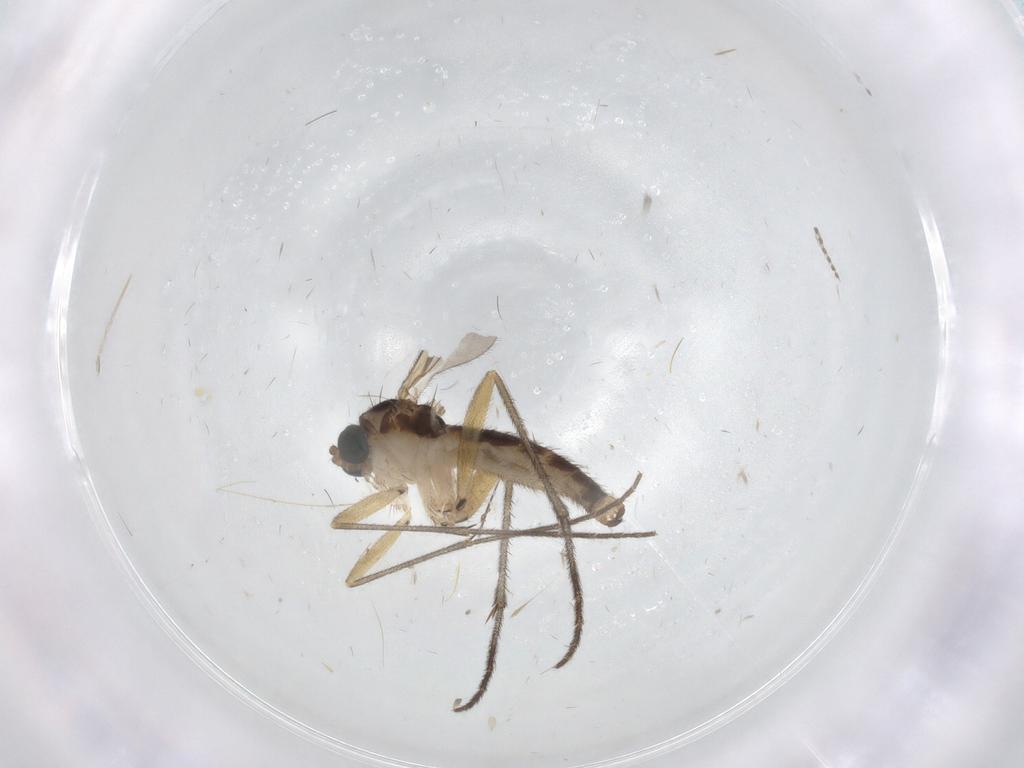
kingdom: Animalia
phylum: Arthropoda
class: Insecta
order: Diptera
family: Sciaridae
